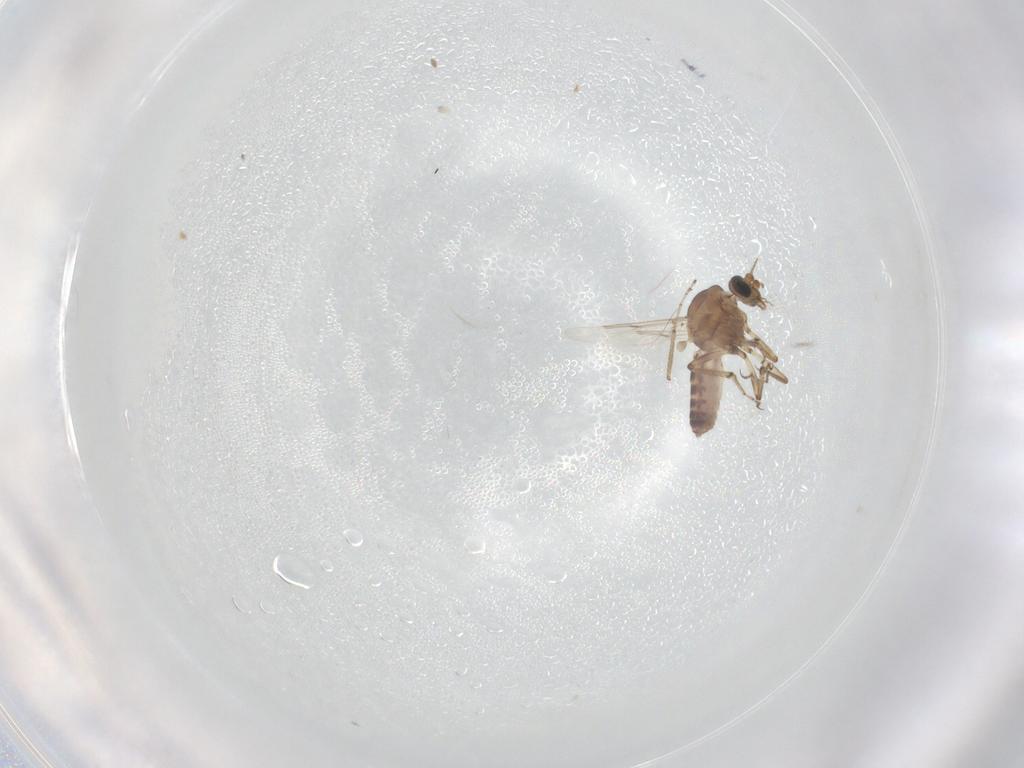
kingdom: Animalia
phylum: Arthropoda
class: Insecta
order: Diptera
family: Ceratopogonidae
